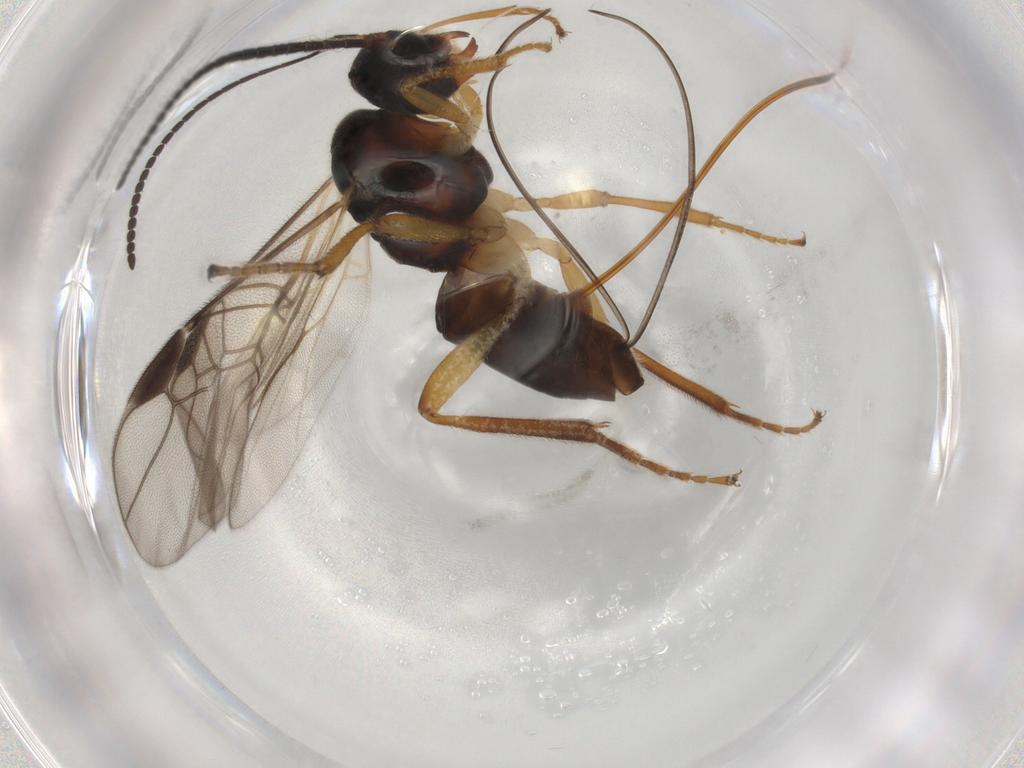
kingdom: Animalia
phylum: Arthropoda
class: Insecta
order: Hymenoptera
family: Braconidae
